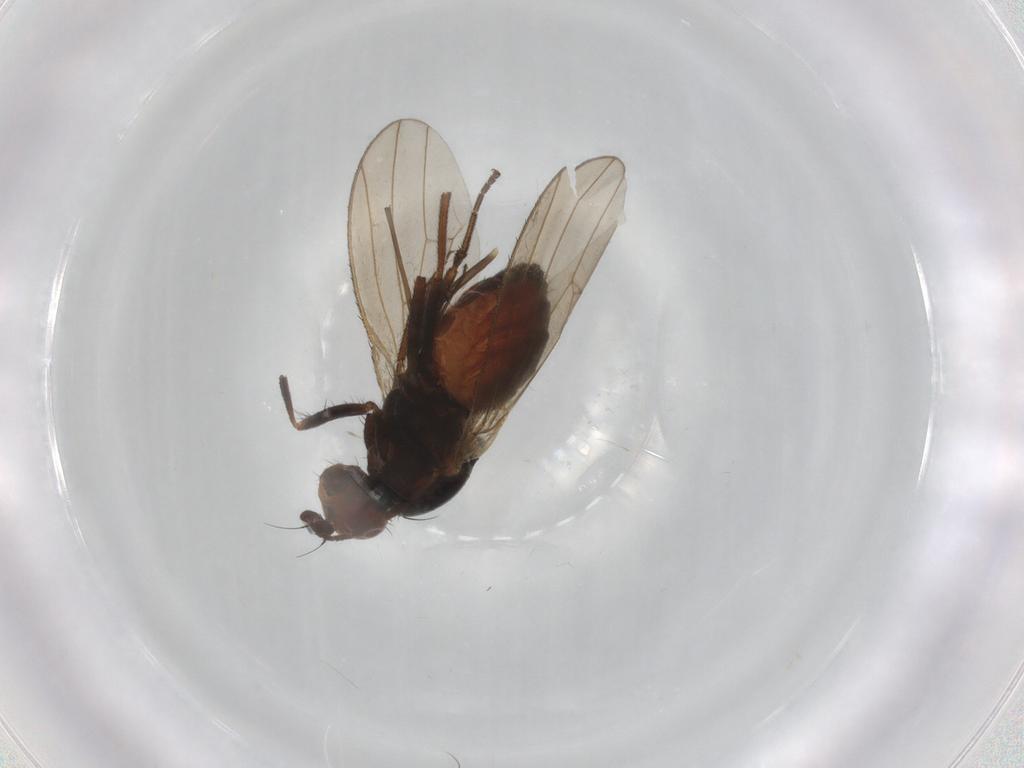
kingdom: Animalia
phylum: Arthropoda
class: Insecta
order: Diptera
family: Heleomyzidae
